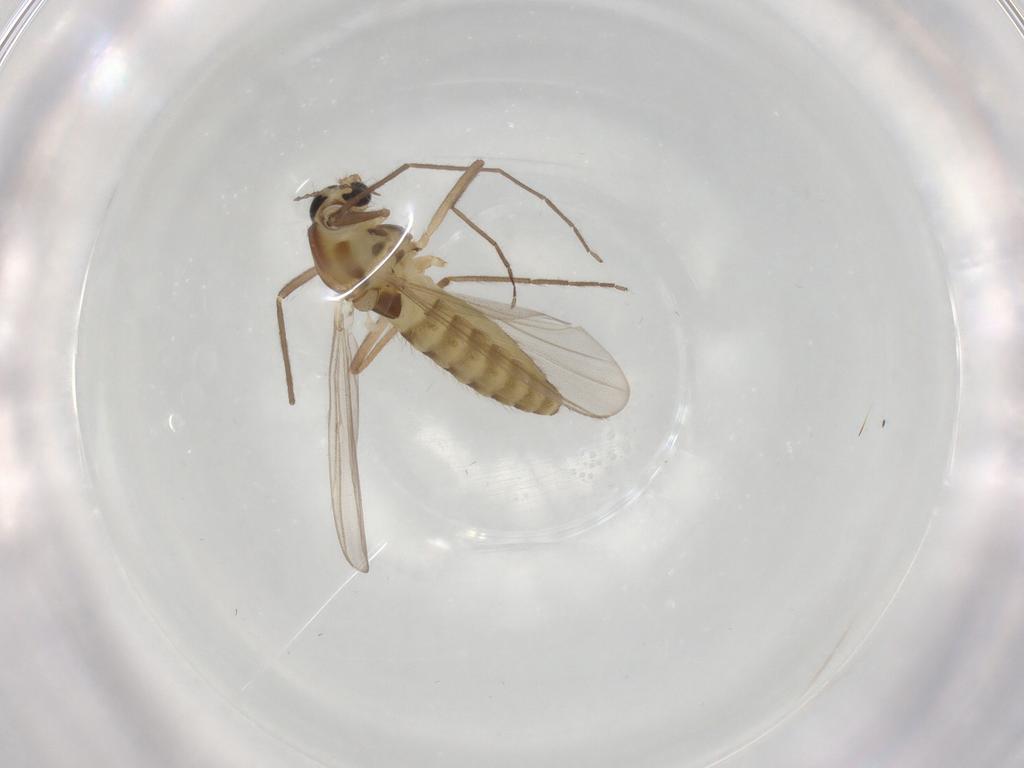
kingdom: Animalia
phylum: Arthropoda
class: Insecta
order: Diptera
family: Chironomidae
